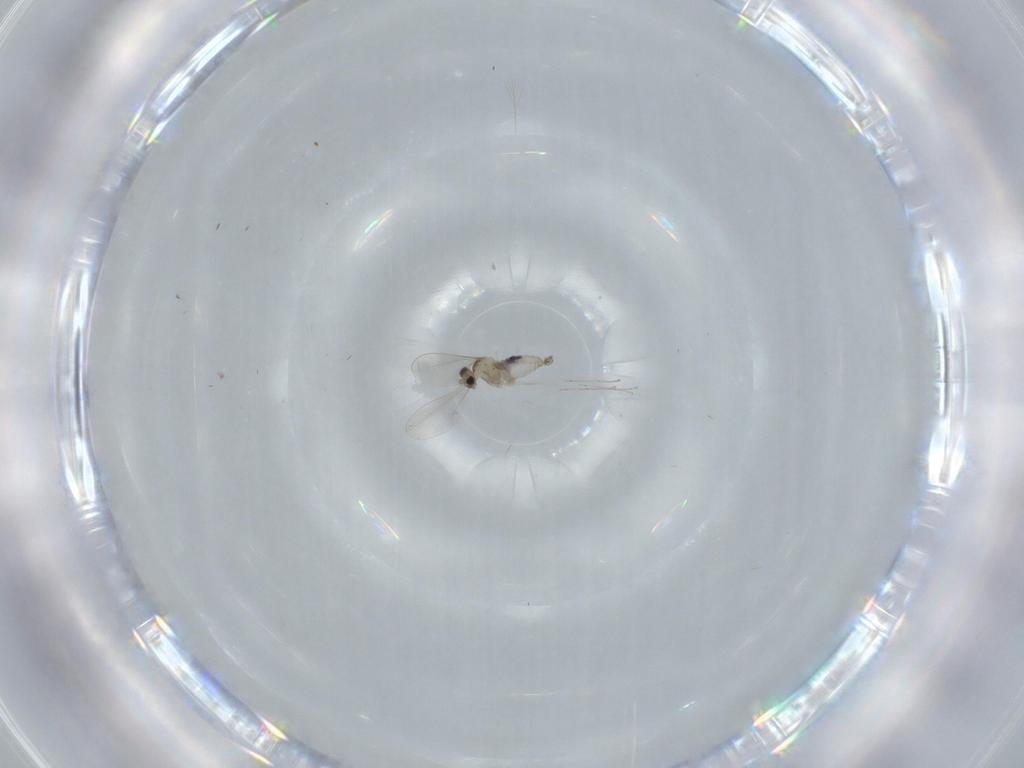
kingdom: Animalia
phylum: Arthropoda
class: Insecta
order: Diptera
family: Cecidomyiidae
